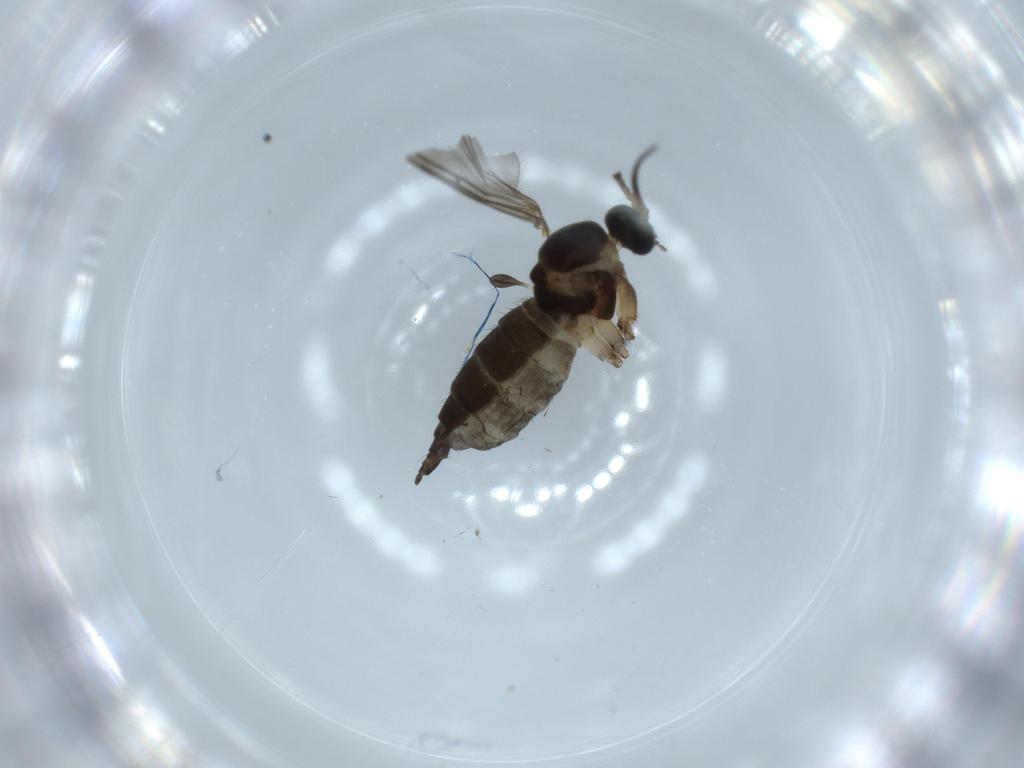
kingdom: Animalia
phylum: Arthropoda
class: Insecta
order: Diptera
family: Sciaridae
